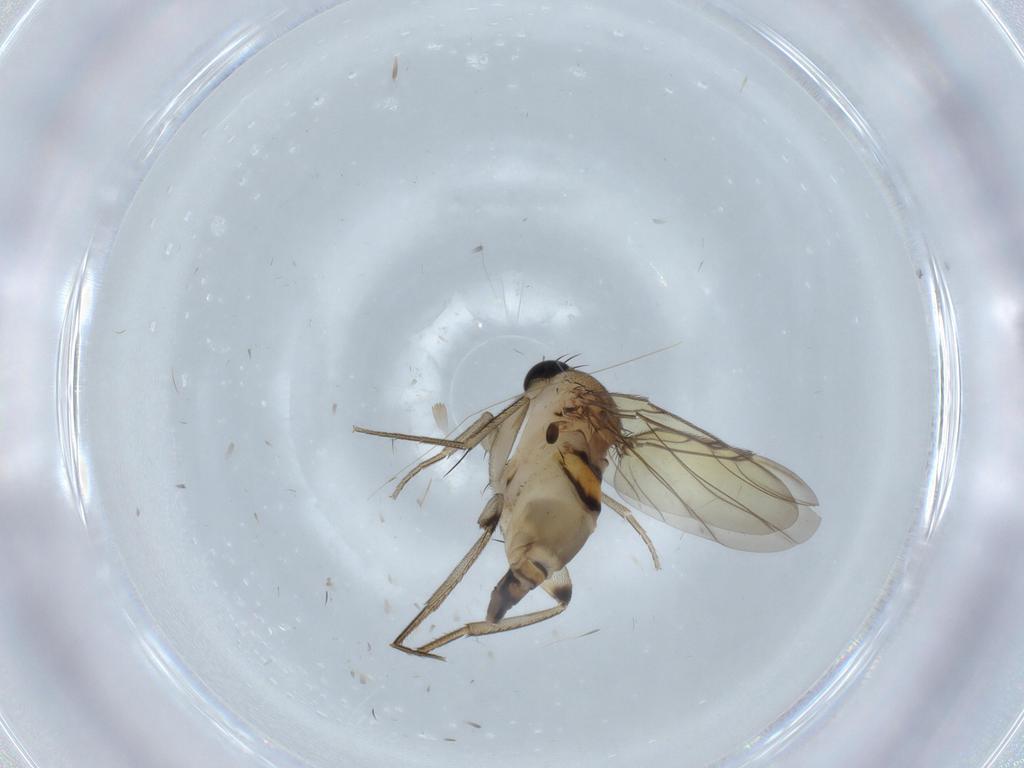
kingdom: Animalia
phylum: Arthropoda
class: Insecta
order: Diptera
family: Phoridae
